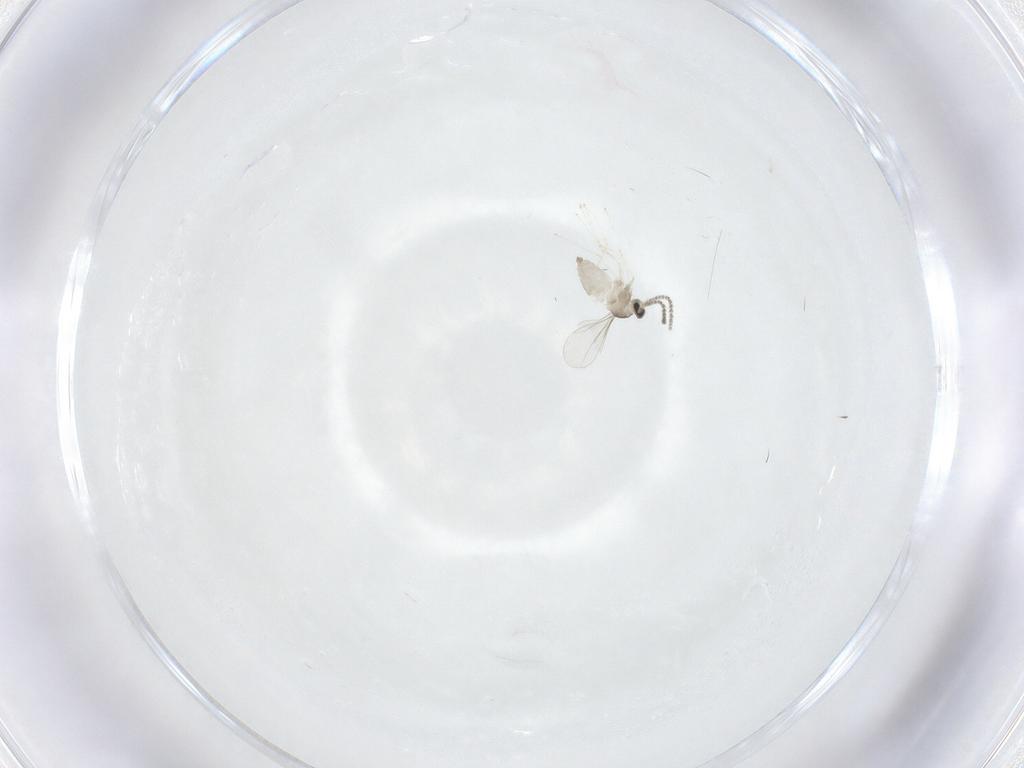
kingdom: Animalia
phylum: Arthropoda
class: Insecta
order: Diptera
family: Cecidomyiidae
